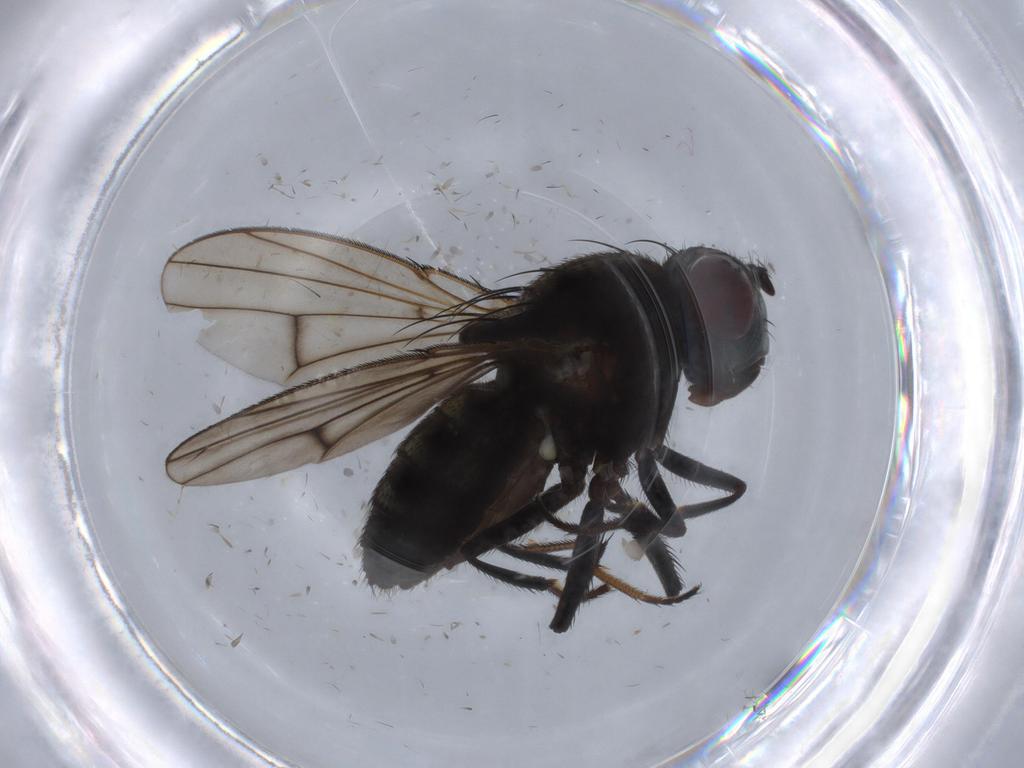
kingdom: Animalia
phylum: Arthropoda
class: Insecta
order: Diptera
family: Ephydridae
